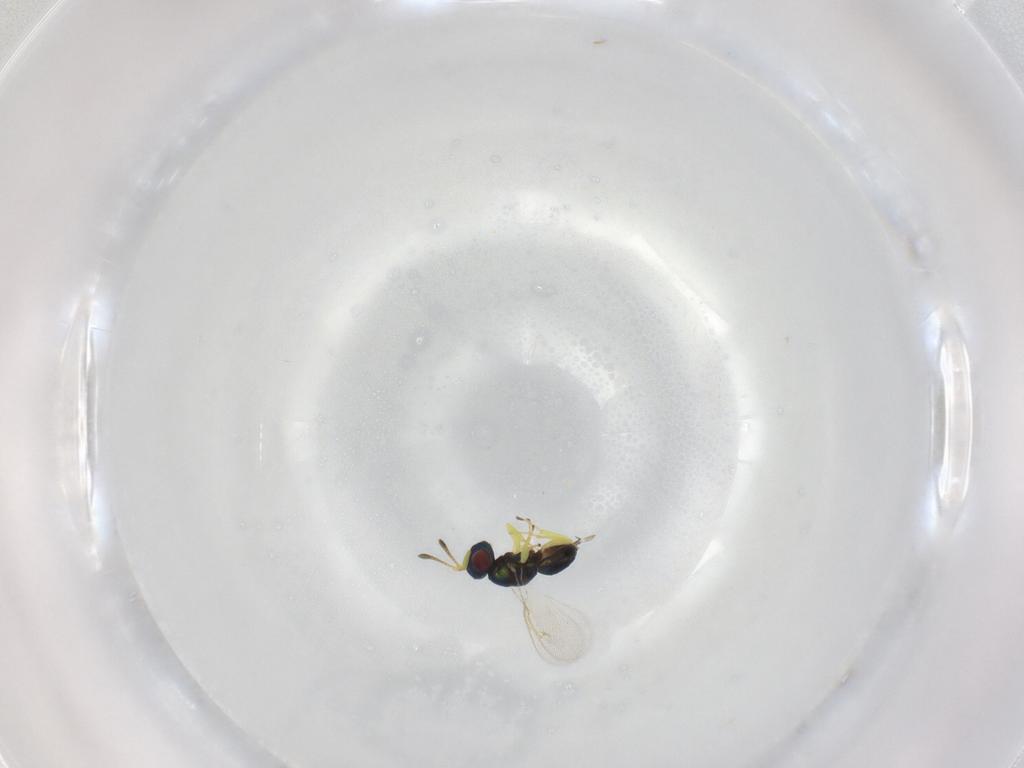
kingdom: Animalia
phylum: Arthropoda
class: Insecta
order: Hymenoptera
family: Pteromalidae
